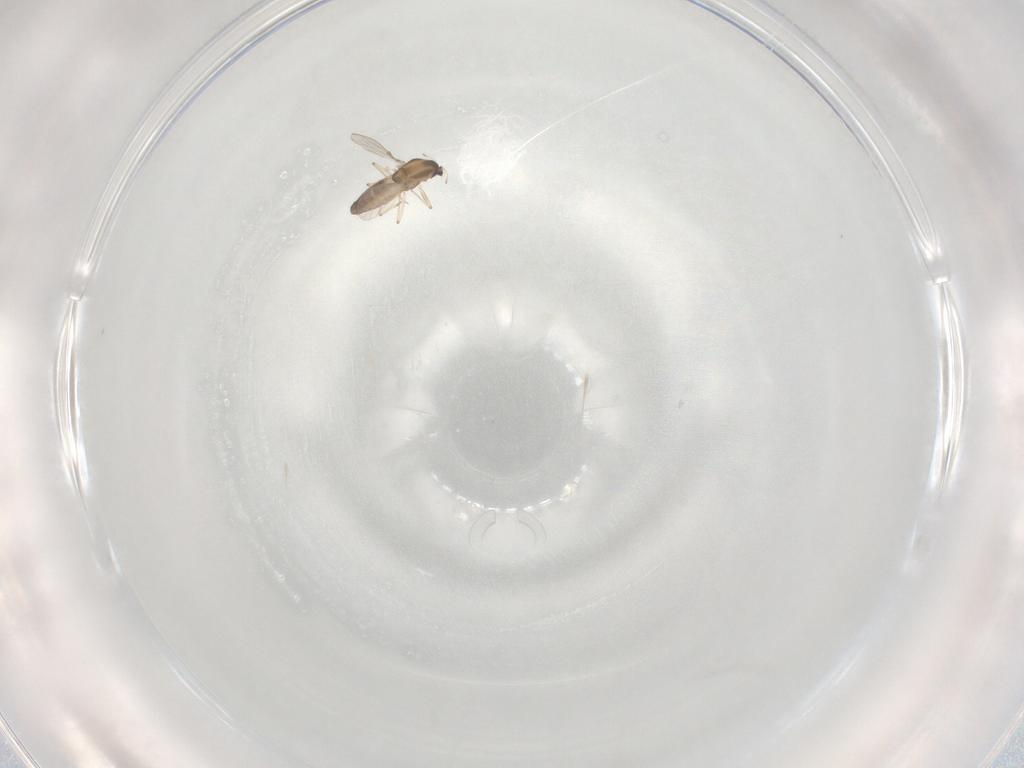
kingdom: Animalia
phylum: Arthropoda
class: Insecta
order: Diptera
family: Chironomidae
